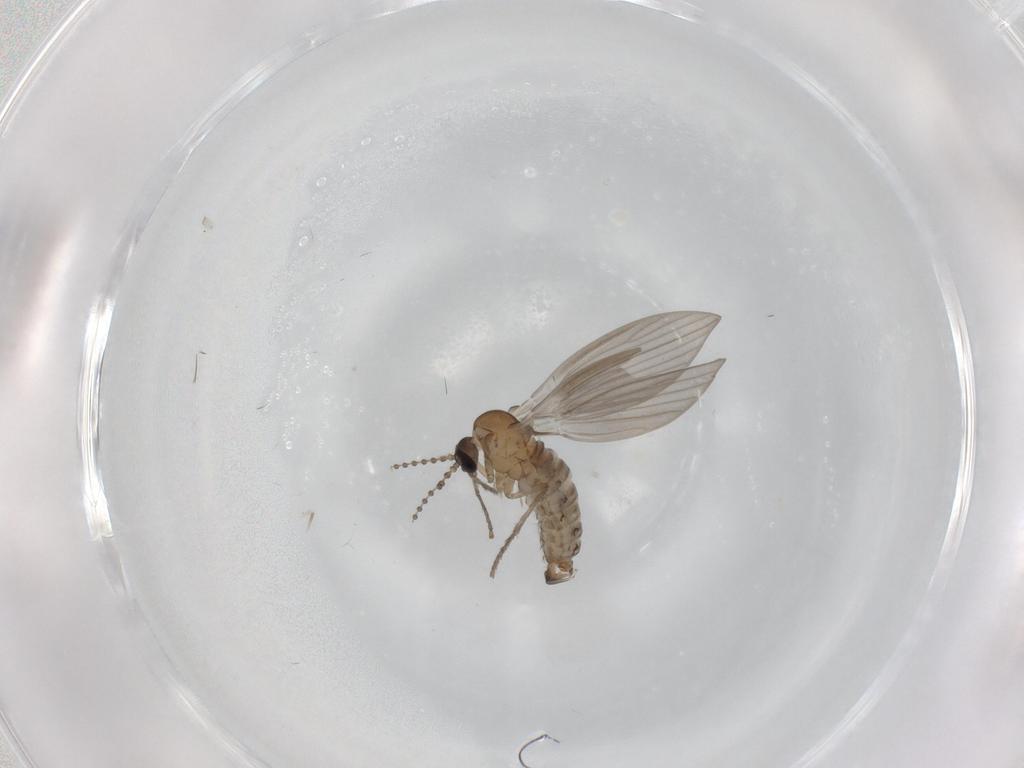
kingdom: Animalia
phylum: Arthropoda
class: Insecta
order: Diptera
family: Psychodidae
